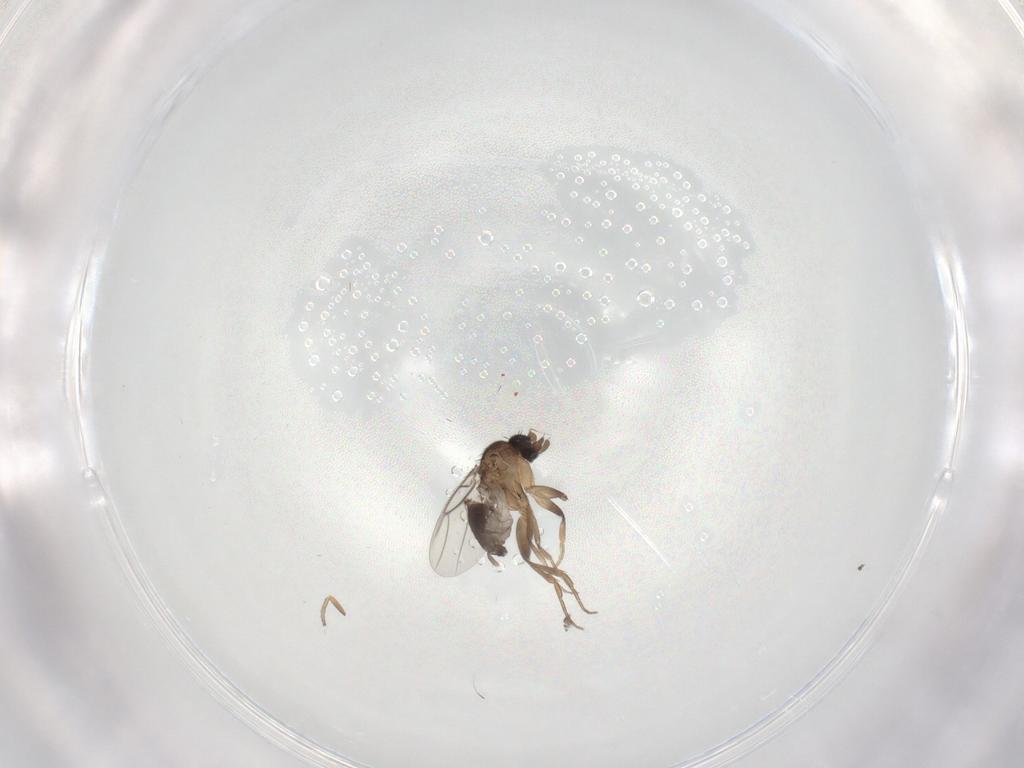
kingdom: Animalia
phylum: Arthropoda
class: Insecta
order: Diptera
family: Phoridae
